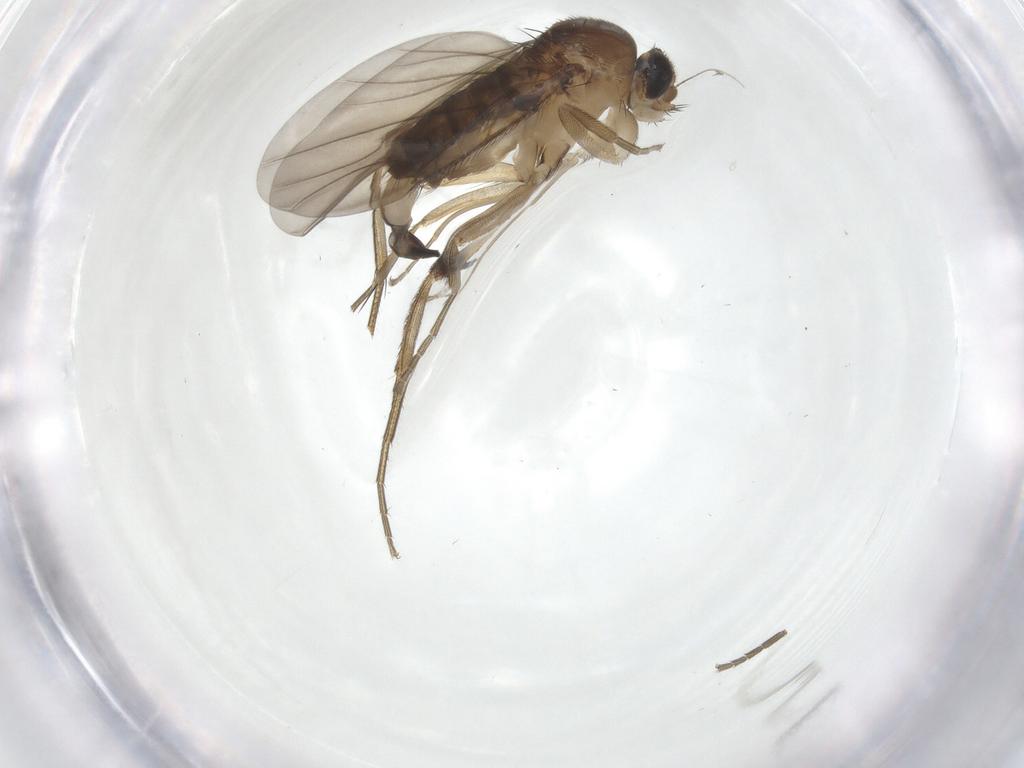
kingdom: Animalia
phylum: Arthropoda
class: Insecta
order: Diptera
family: Phoridae
